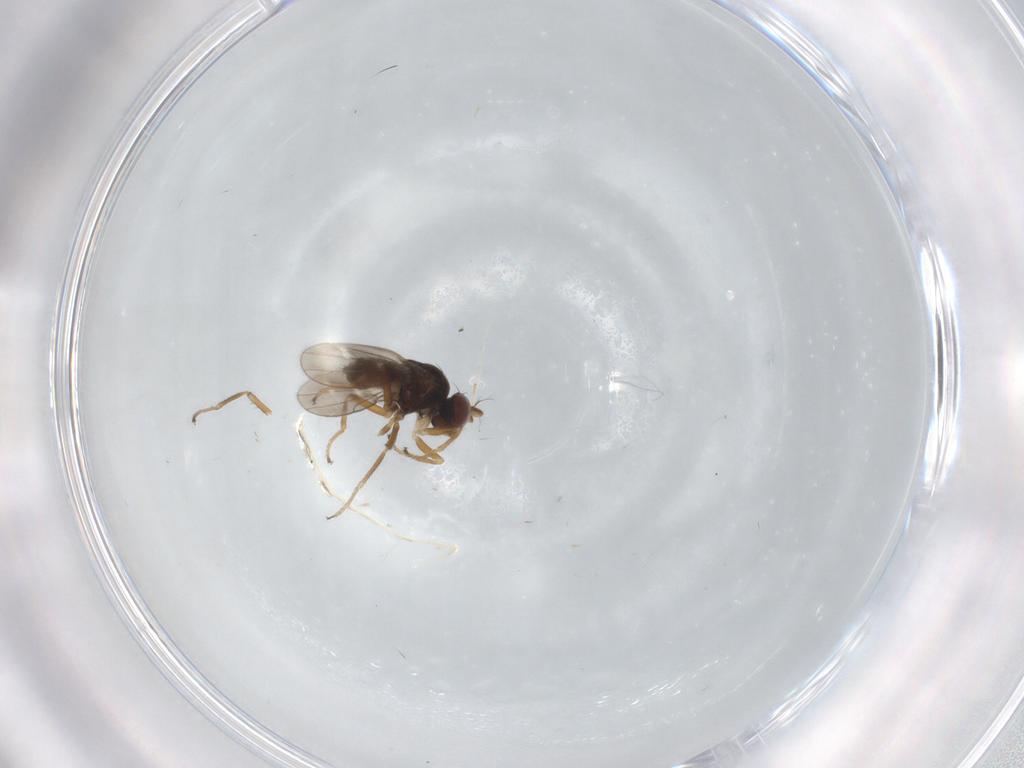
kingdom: Animalia
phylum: Arthropoda
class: Insecta
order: Diptera
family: Ephydridae
